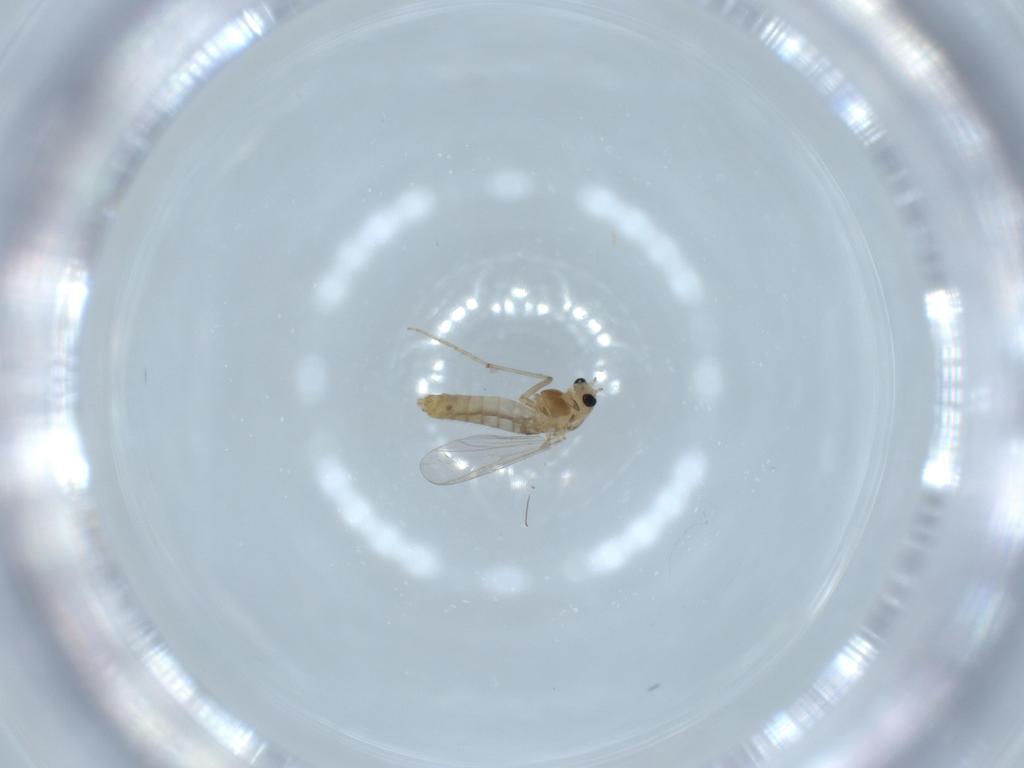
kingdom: Animalia
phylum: Arthropoda
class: Insecta
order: Diptera
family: Chironomidae
